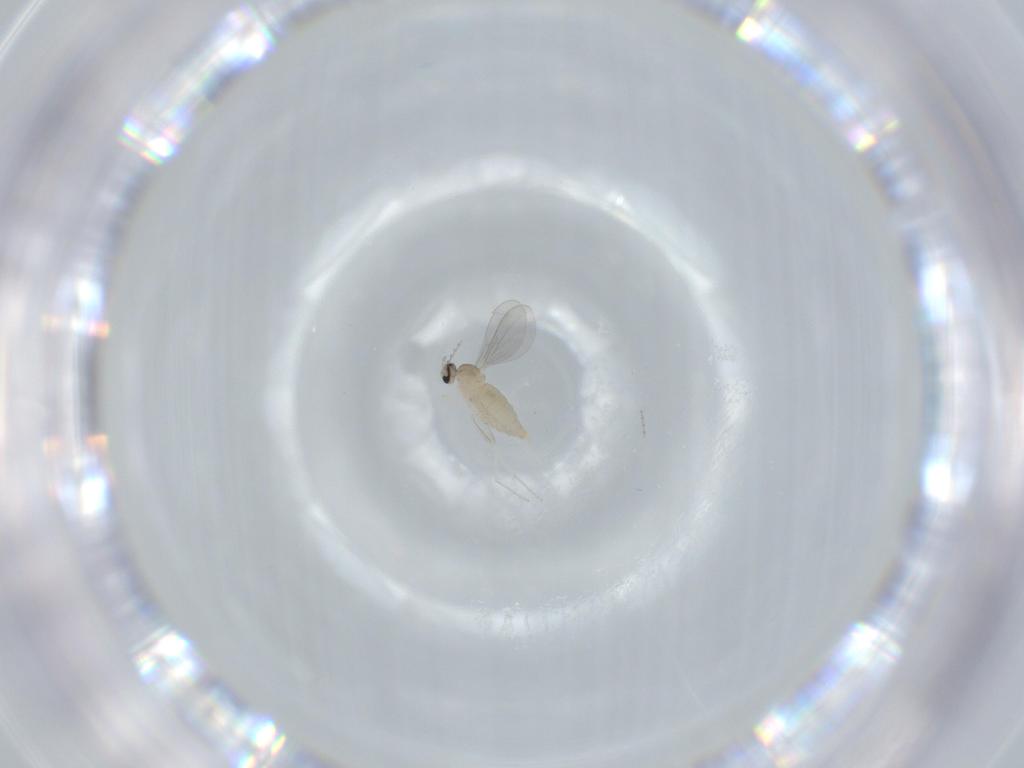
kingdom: Animalia
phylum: Arthropoda
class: Insecta
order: Diptera
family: Cecidomyiidae
